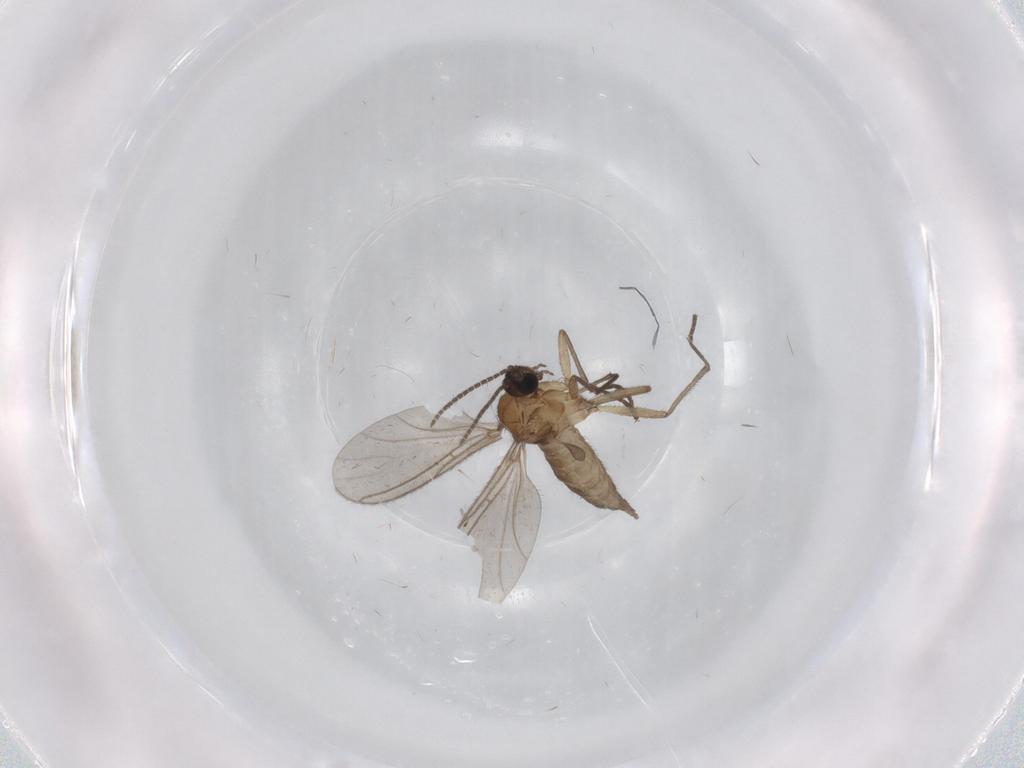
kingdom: Animalia
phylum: Arthropoda
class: Insecta
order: Diptera
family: Sciaridae
